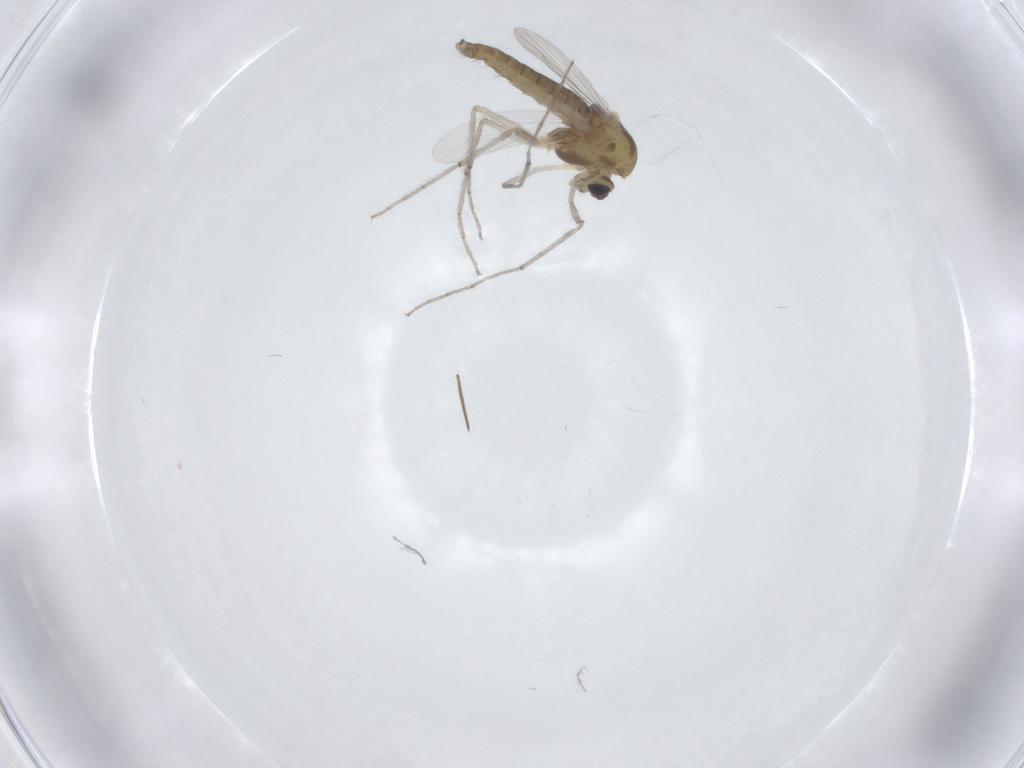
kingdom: Animalia
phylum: Arthropoda
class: Insecta
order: Diptera
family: Chironomidae
